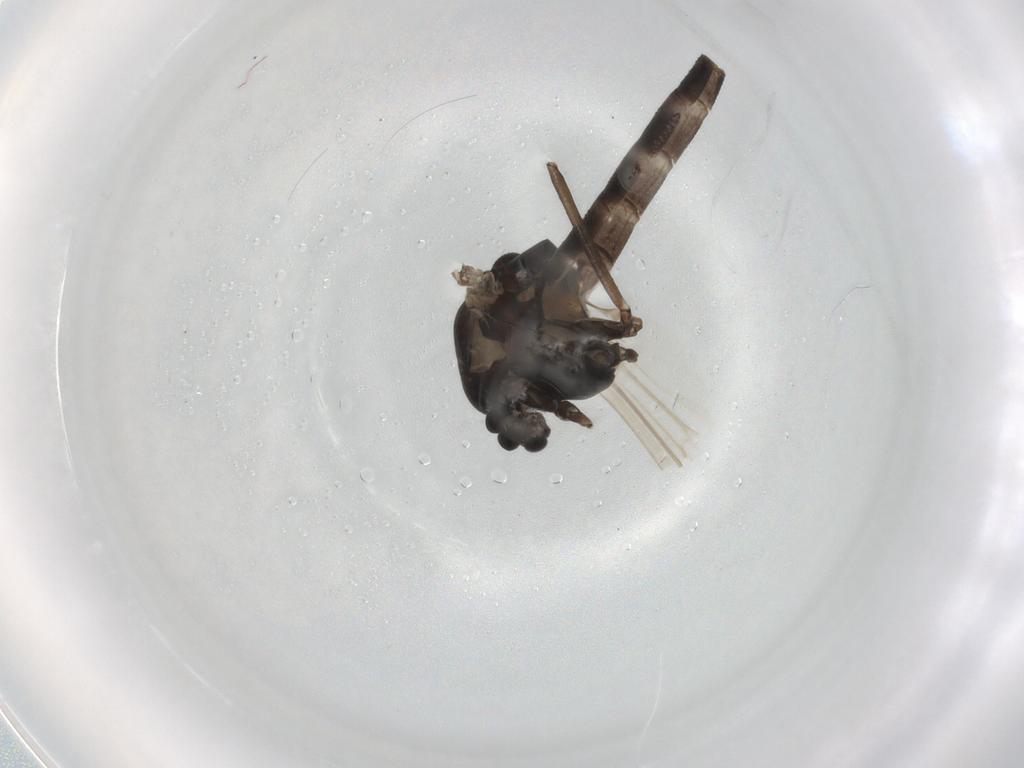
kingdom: Animalia
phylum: Arthropoda
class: Insecta
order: Diptera
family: Chironomidae
